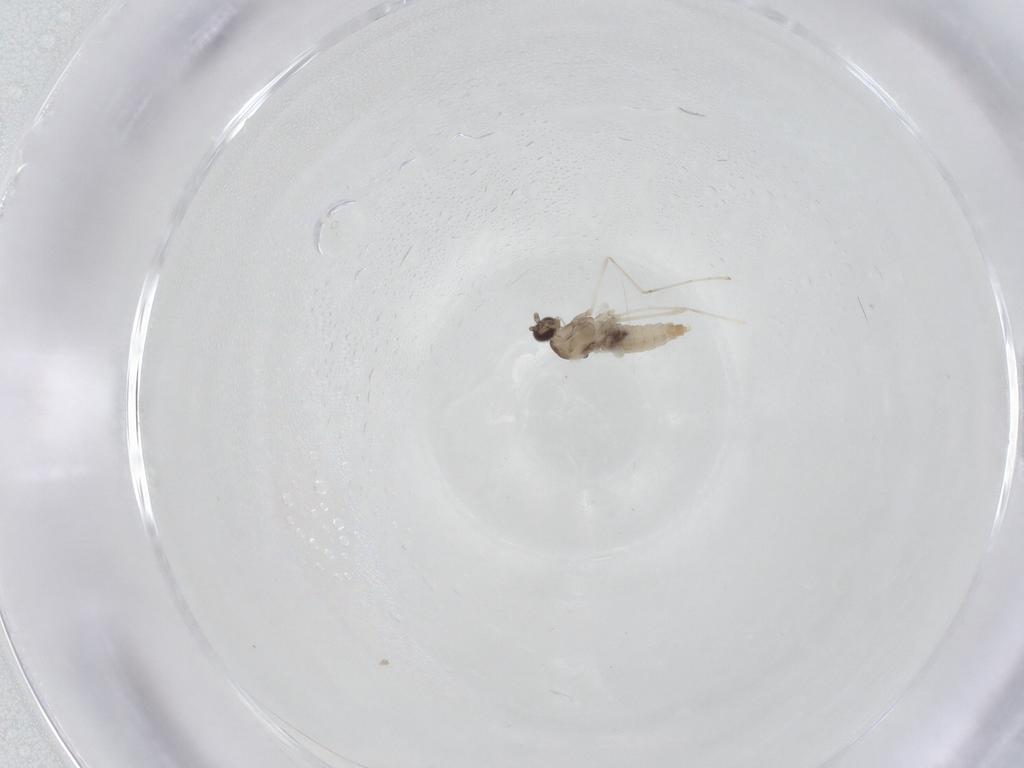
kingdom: Animalia
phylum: Arthropoda
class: Insecta
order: Diptera
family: Cecidomyiidae
